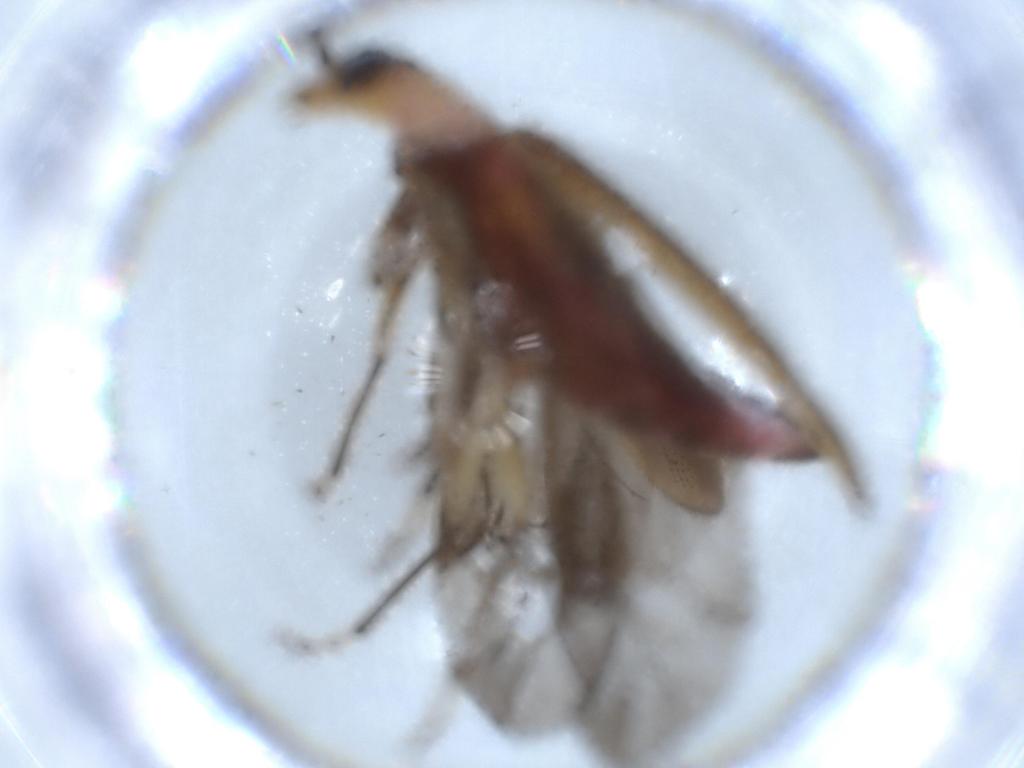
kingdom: Animalia
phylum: Arthropoda
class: Insecta
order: Coleoptera
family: Cleridae
